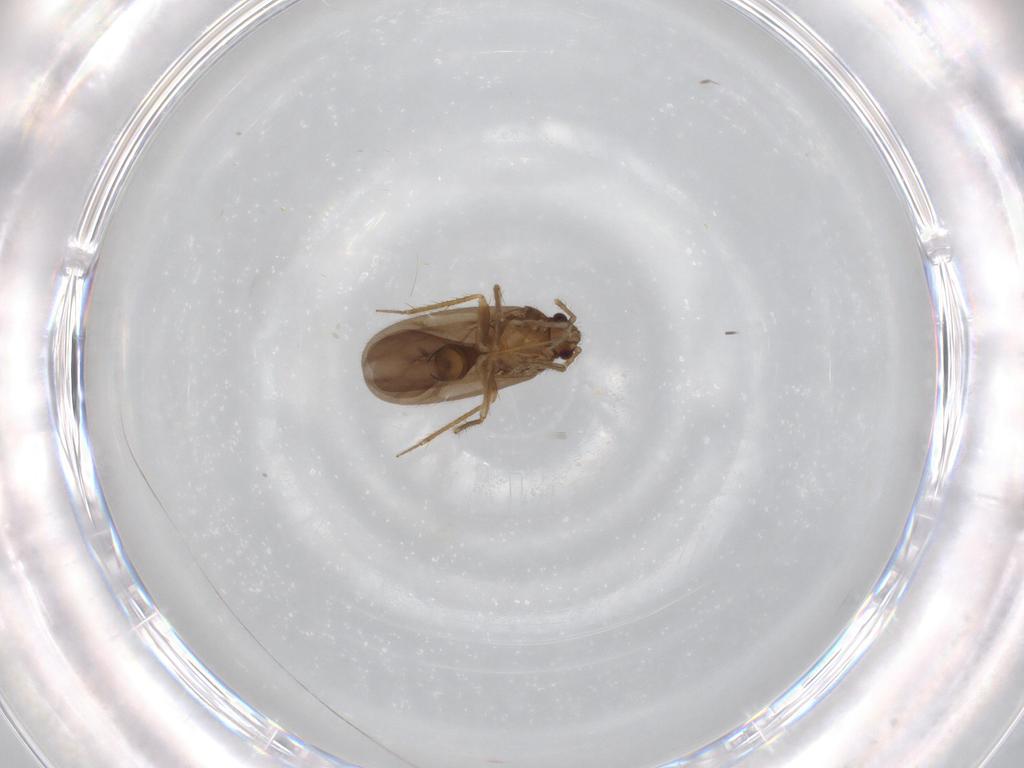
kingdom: Animalia
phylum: Arthropoda
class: Insecta
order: Hemiptera
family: Ceratocombidae
